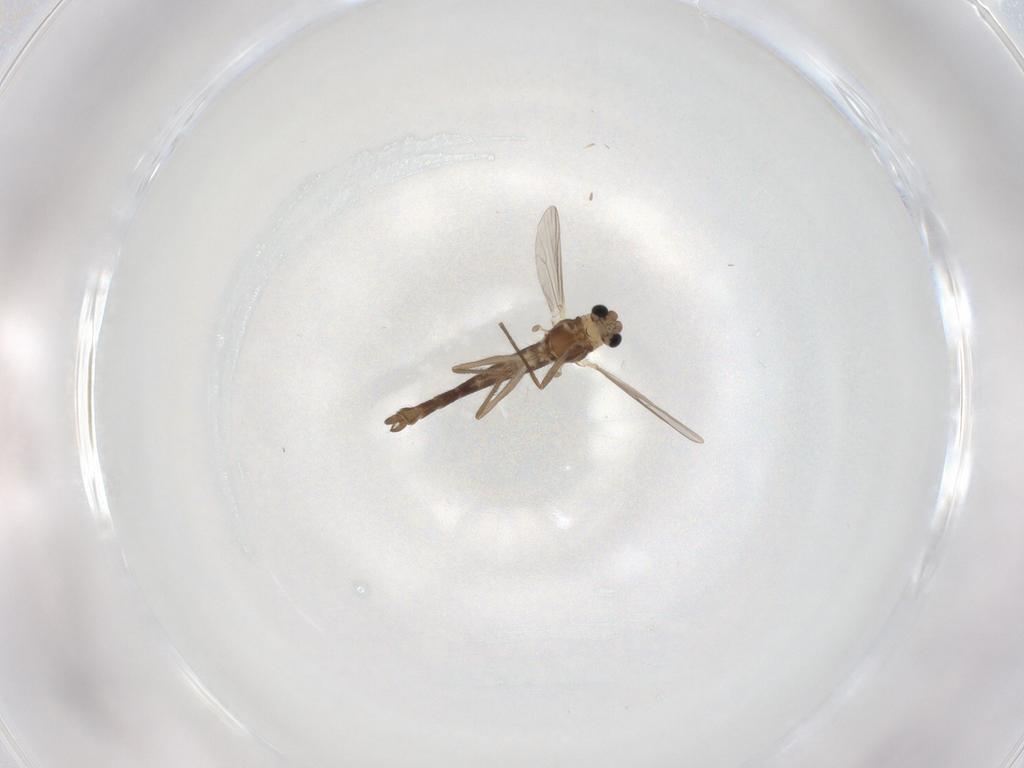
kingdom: Animalia
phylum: Arthropoda
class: Insecta
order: Diptera
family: Chironomidae
